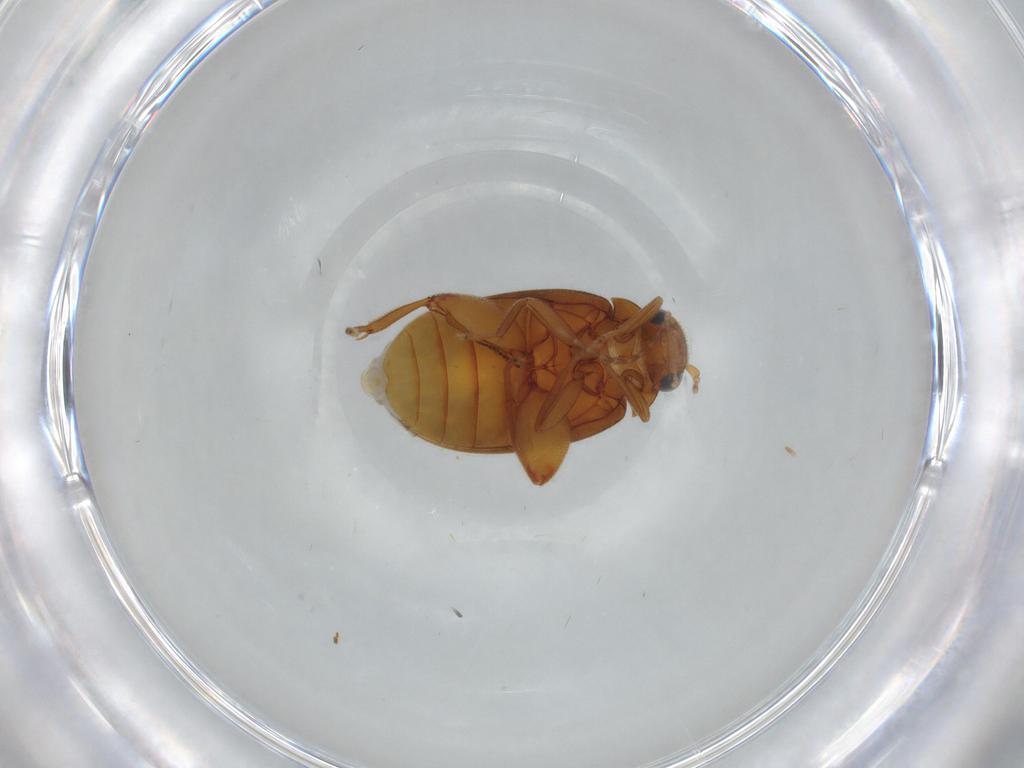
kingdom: Animalia
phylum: Arthropoda
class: Insecta
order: Coleoptera
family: Scirtidae
